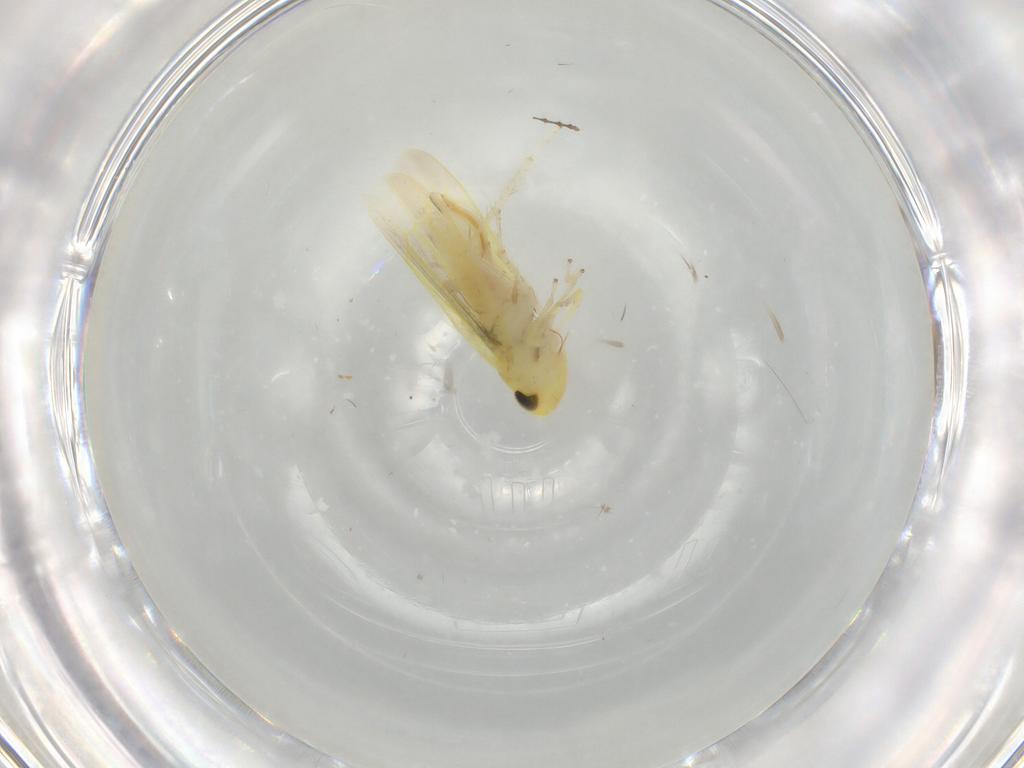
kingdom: Animalia
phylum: Arthropoda
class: Insecta
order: Hemiptera
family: Cicadellidae
